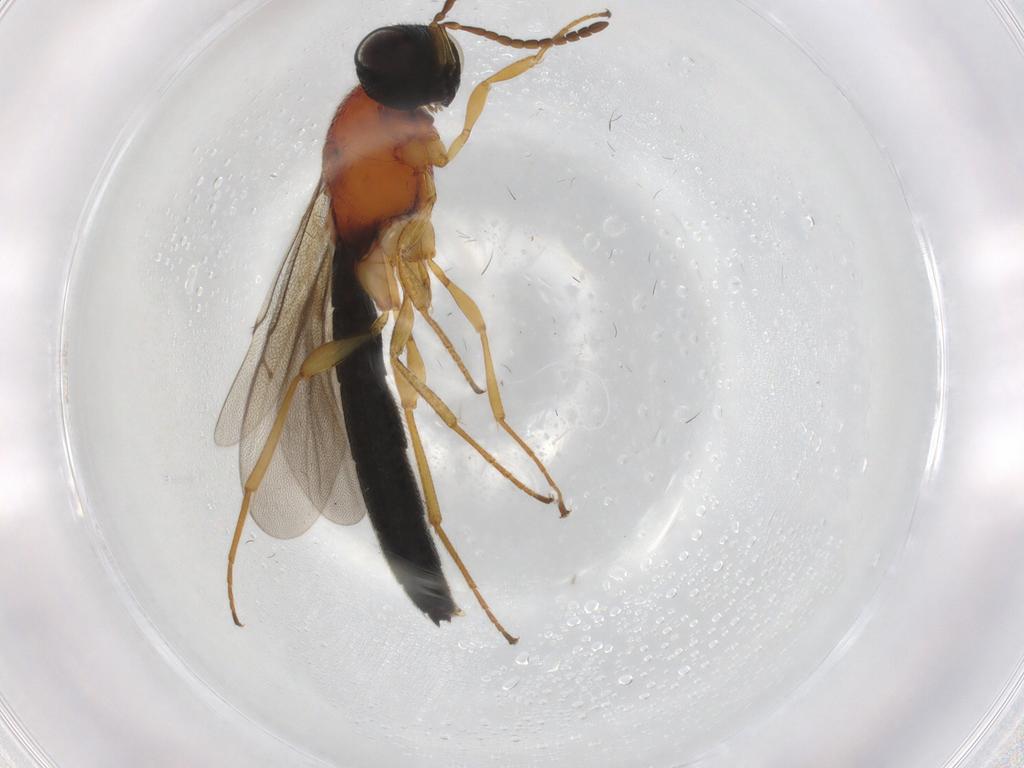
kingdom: Animalia
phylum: Arthropoda
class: Insecta
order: Hymenoptera
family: Scelionidae
